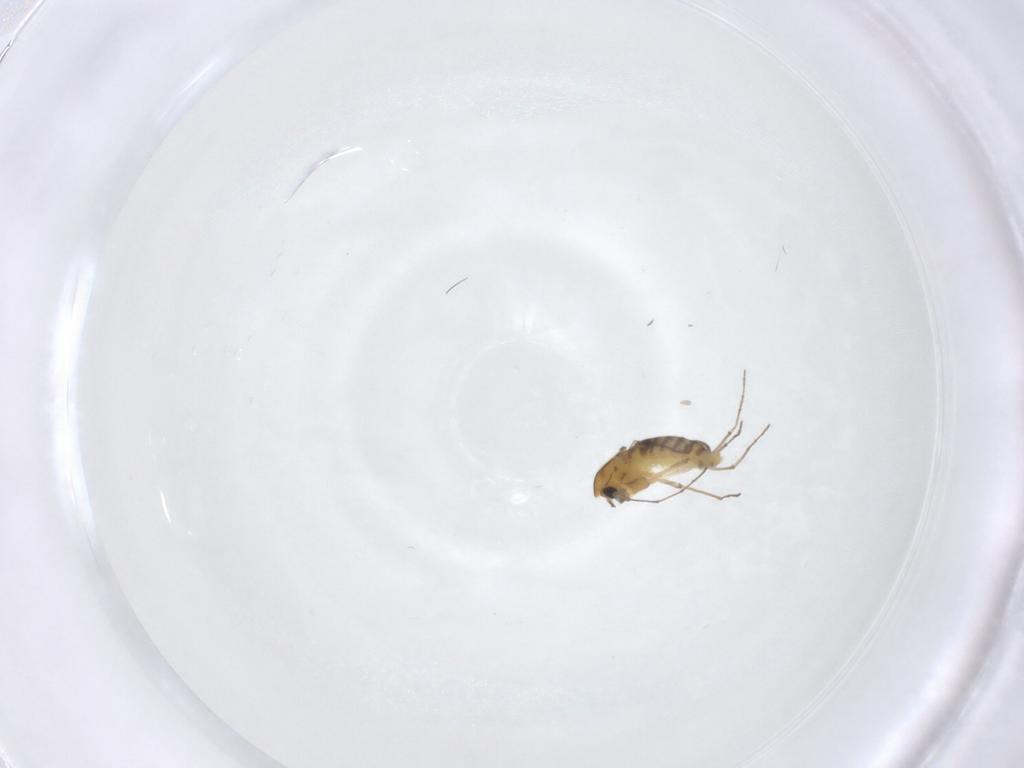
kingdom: Animalia
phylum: Arthropoda
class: Insecta
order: Diptera
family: Chironomidae
